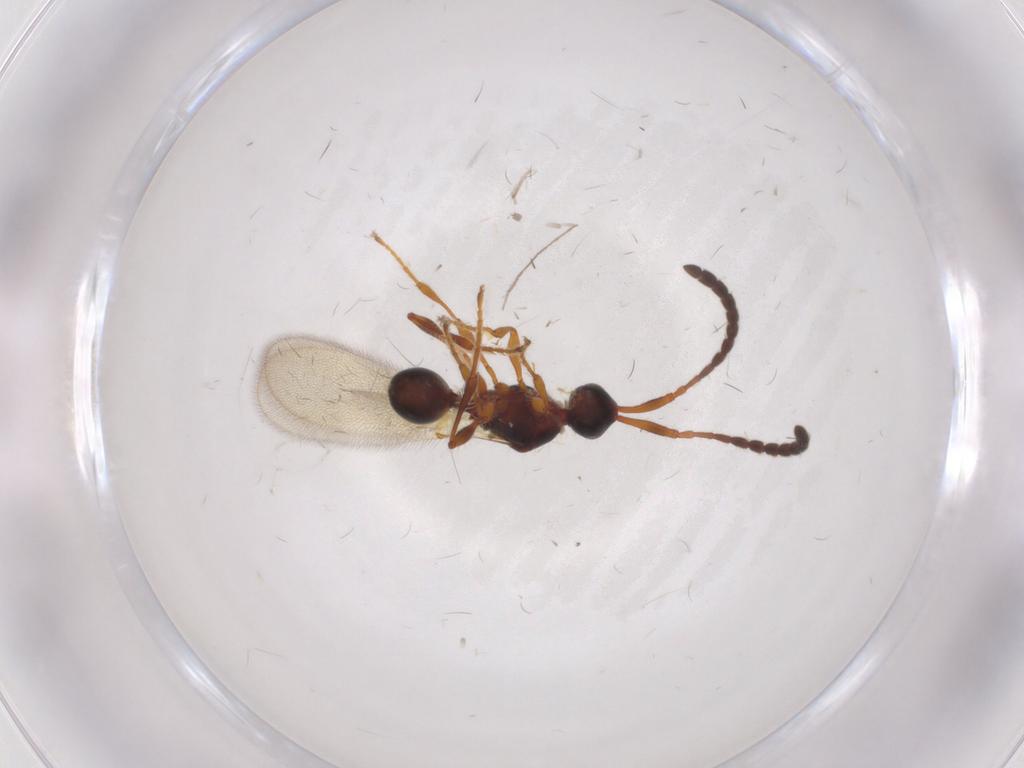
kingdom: Animalia
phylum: Arthropoda
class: Insecta
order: Hymenoptera
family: Diapriidae
